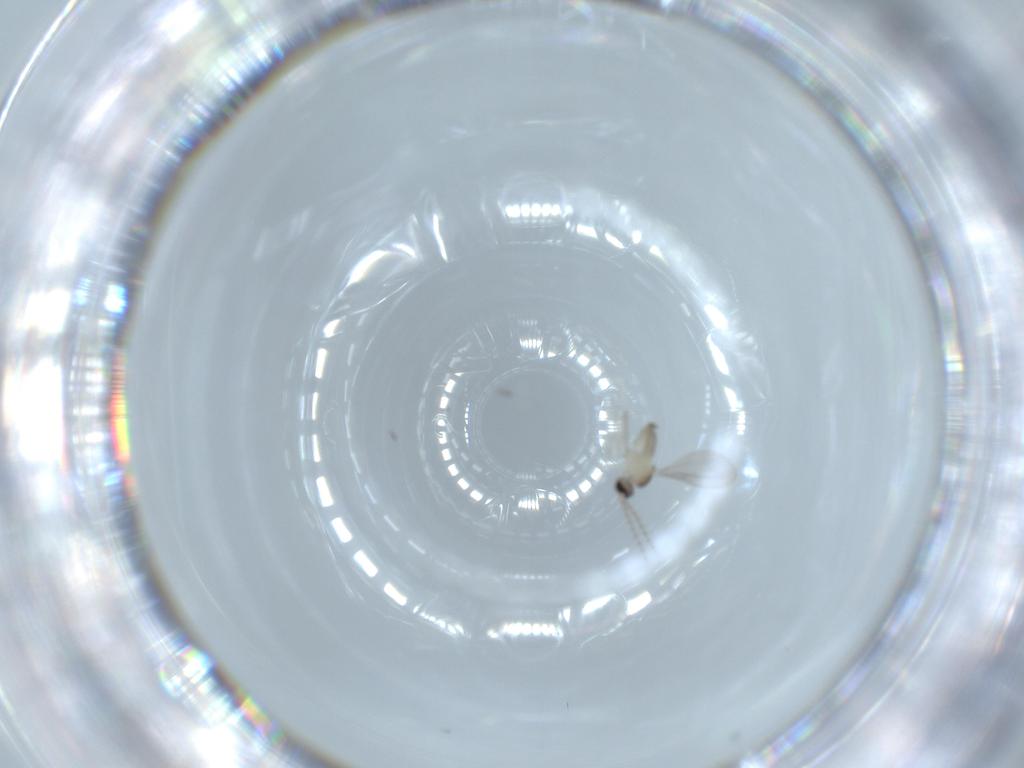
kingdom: Animalia
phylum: Arthropoda
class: Insecta
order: Diptera
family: Cecidomyiidae
